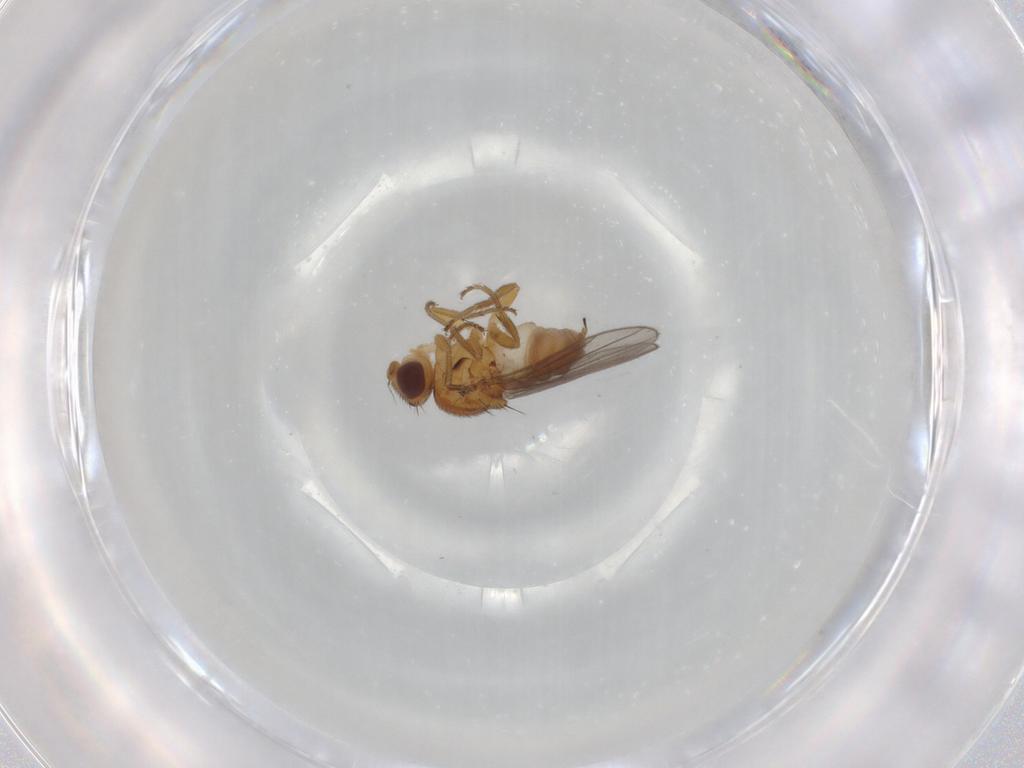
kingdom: Animalia
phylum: Arthropoda
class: Insecta
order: Diptera
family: Chloropidae
